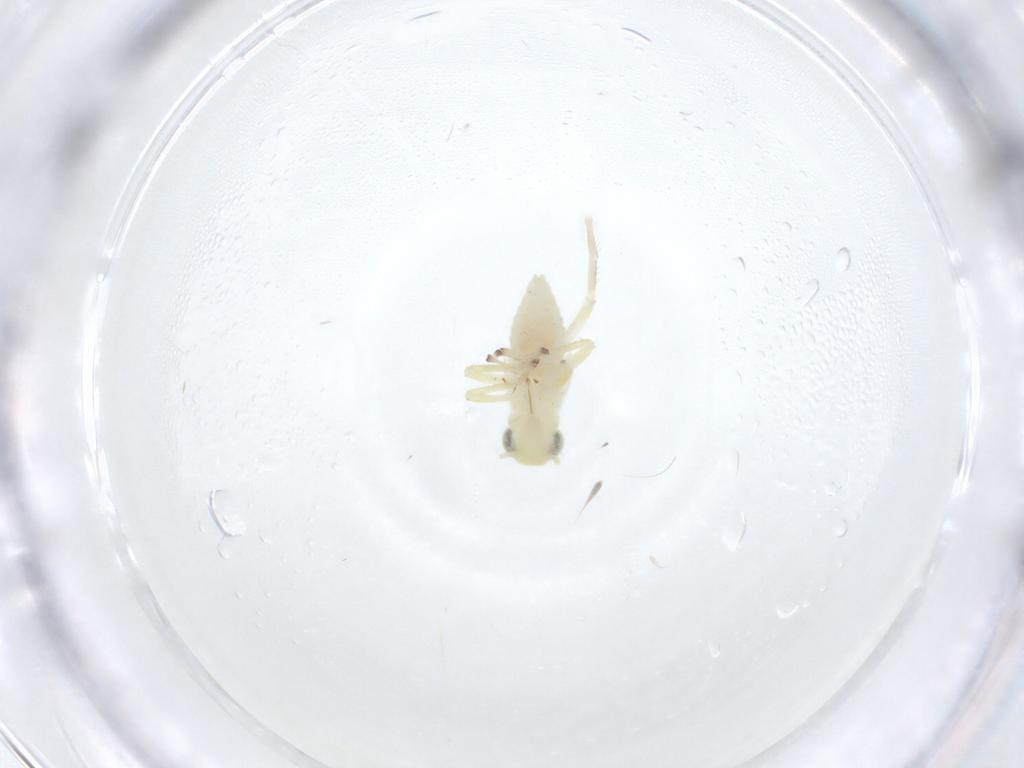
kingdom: Animalia
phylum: Arthropoda
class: Insecta
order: Hemiptera
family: Cicadellidae
